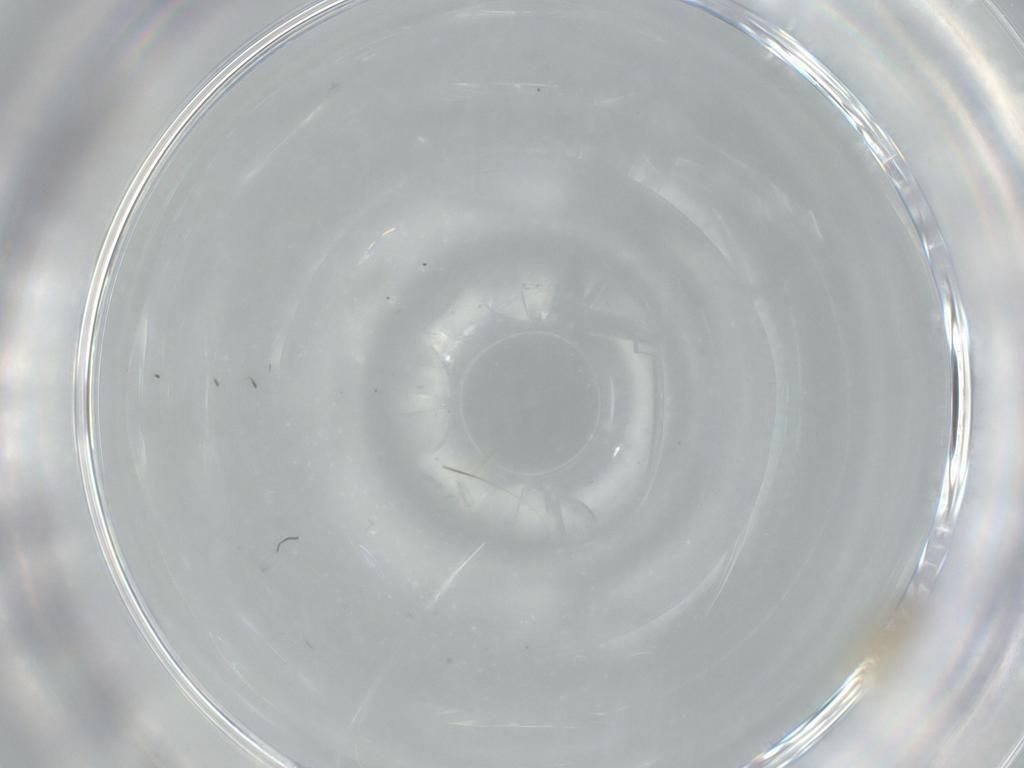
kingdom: Animalia
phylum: Arthropoda
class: Insecta
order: Diptera
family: Cecidomyiidae
